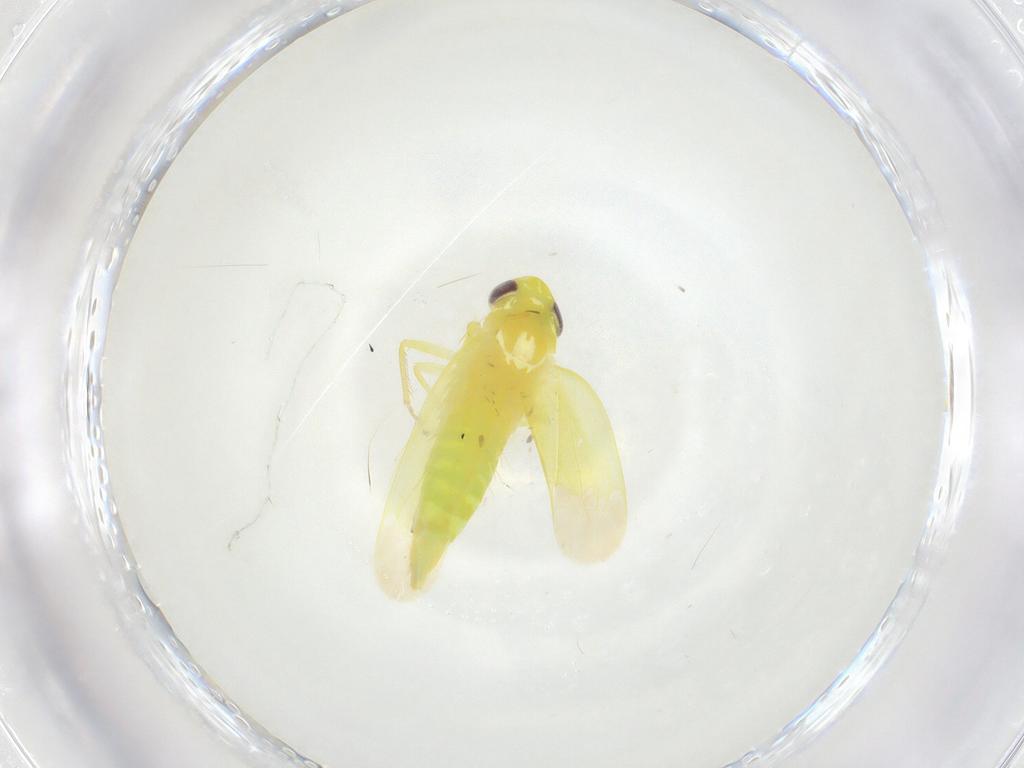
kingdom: Animalia
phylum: Arthropoda
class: Insecta
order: Hemiptera
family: Cicadellidae
